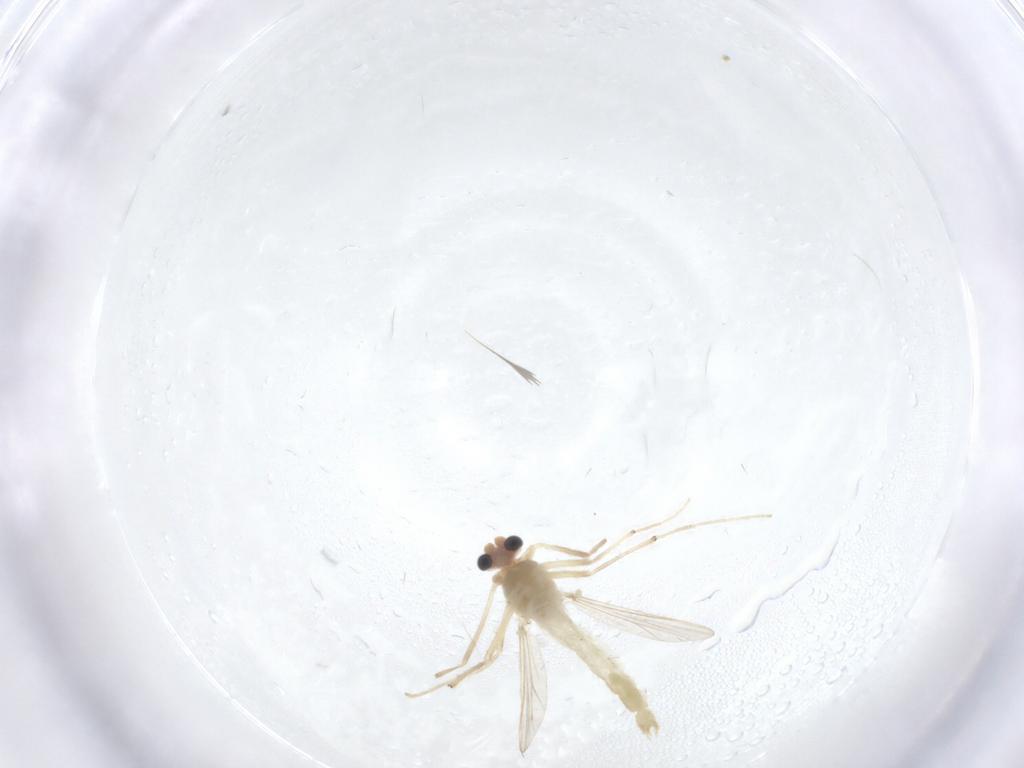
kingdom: Animalia
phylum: Arthropoda
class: Insecta
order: Diptera
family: Chironomidae
